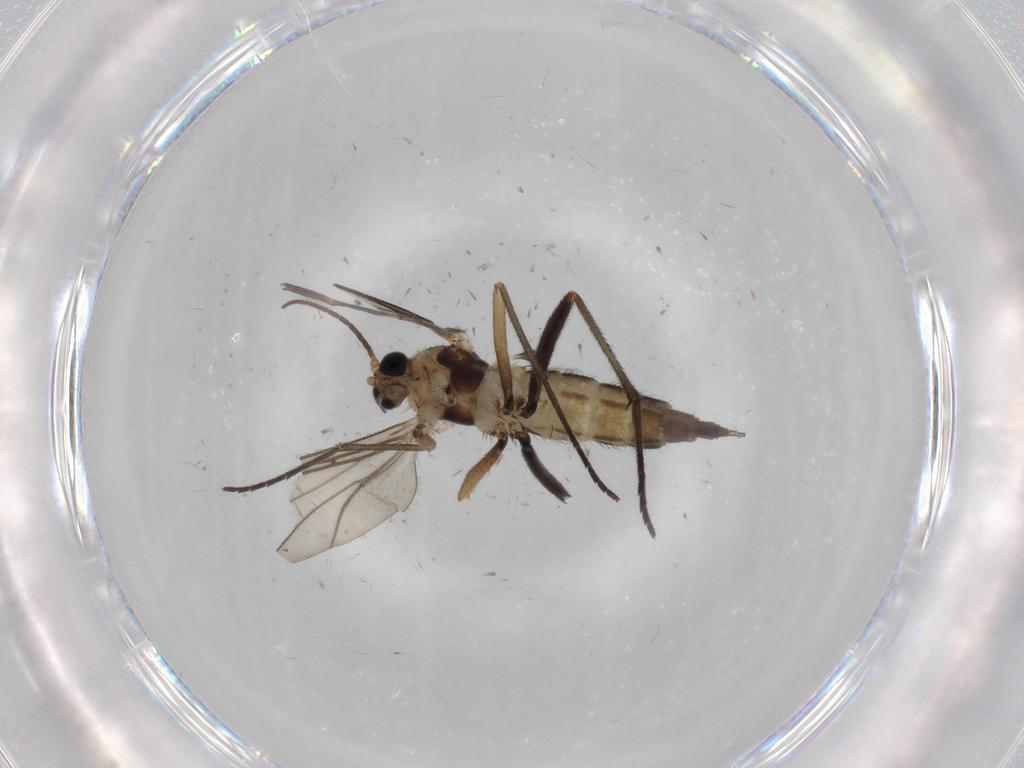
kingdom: Animalia
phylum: Arthropoda
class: Insecta
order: Diptera
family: Sciaridae
